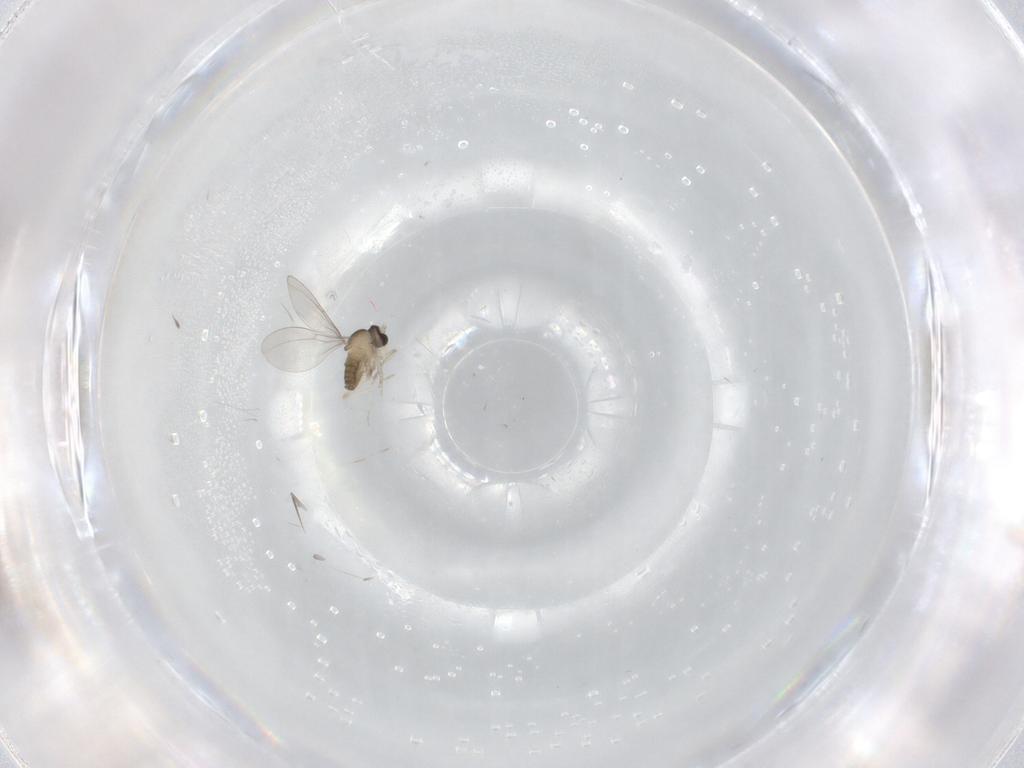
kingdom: Animalia
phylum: Arthropoda
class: Insecta
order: Diptera
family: Cecidomyiidae
